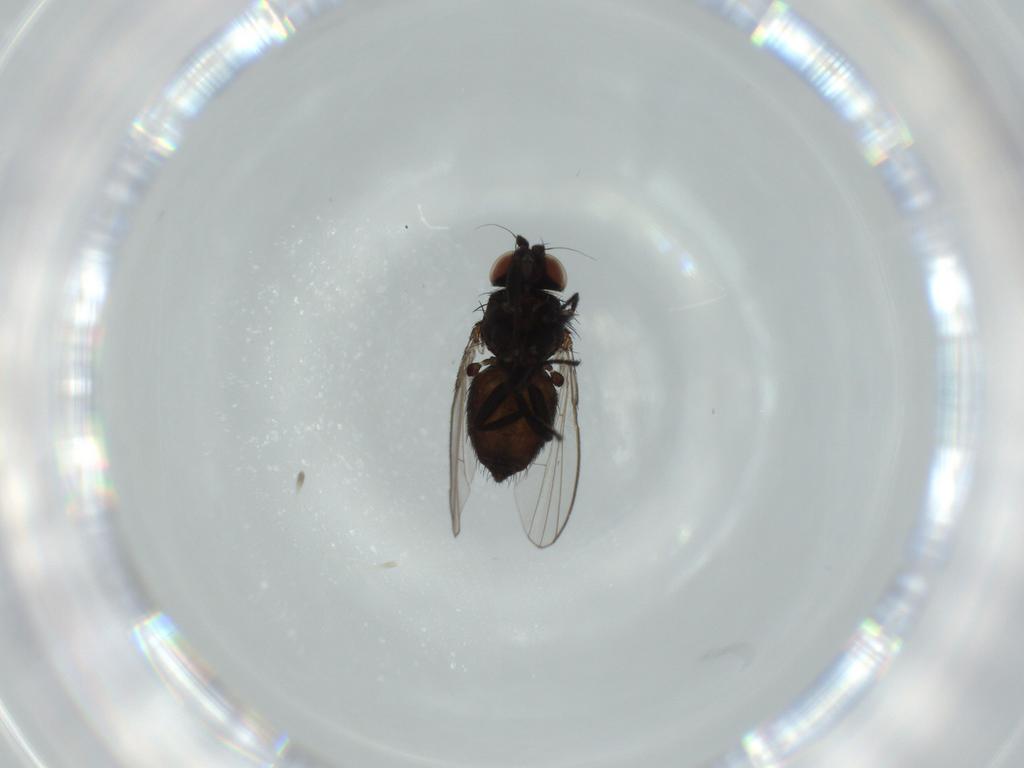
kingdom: Animalia
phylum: Arthropoda
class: Insecta
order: Diptera
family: Milichiidae
